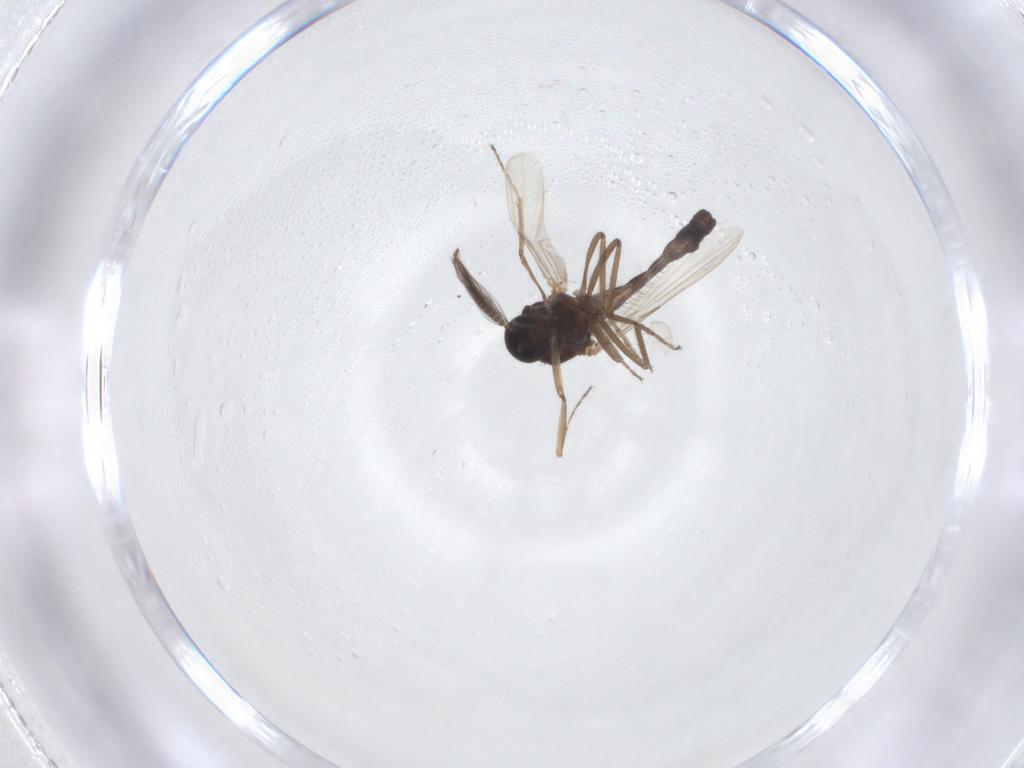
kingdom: Animalia
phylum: Arthropoda
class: Insecta
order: Diptera
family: Ceratopogonidae
